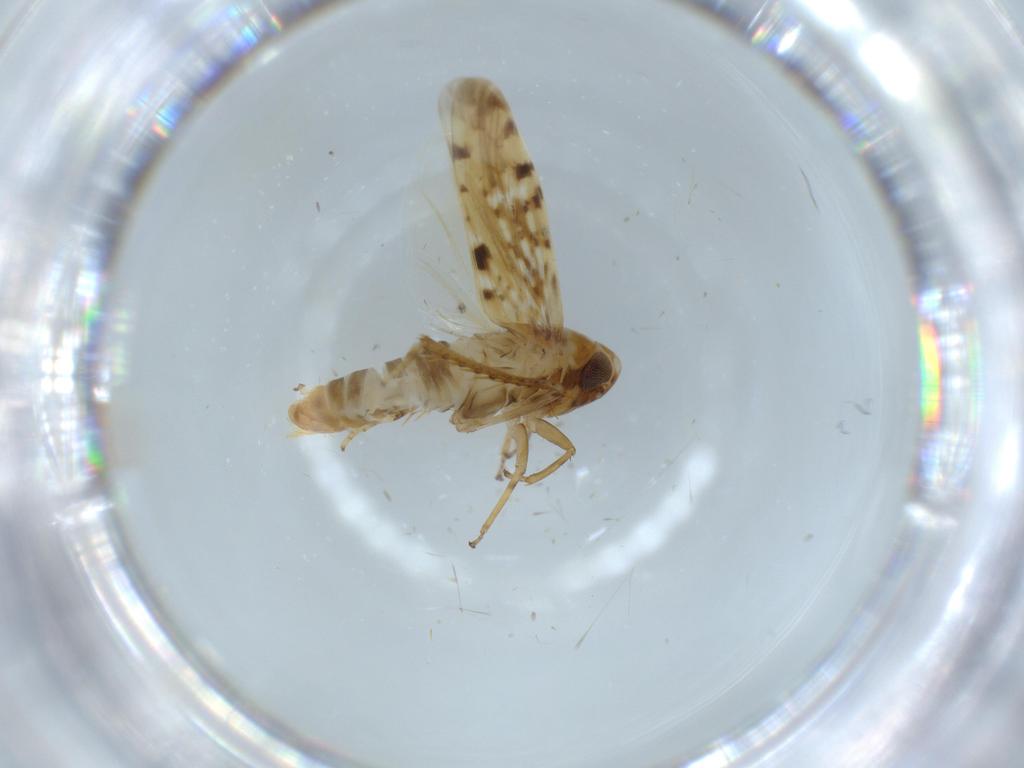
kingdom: Animalia
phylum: Arthropoda
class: Insecta
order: Hemiptera
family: Cicadellidae
